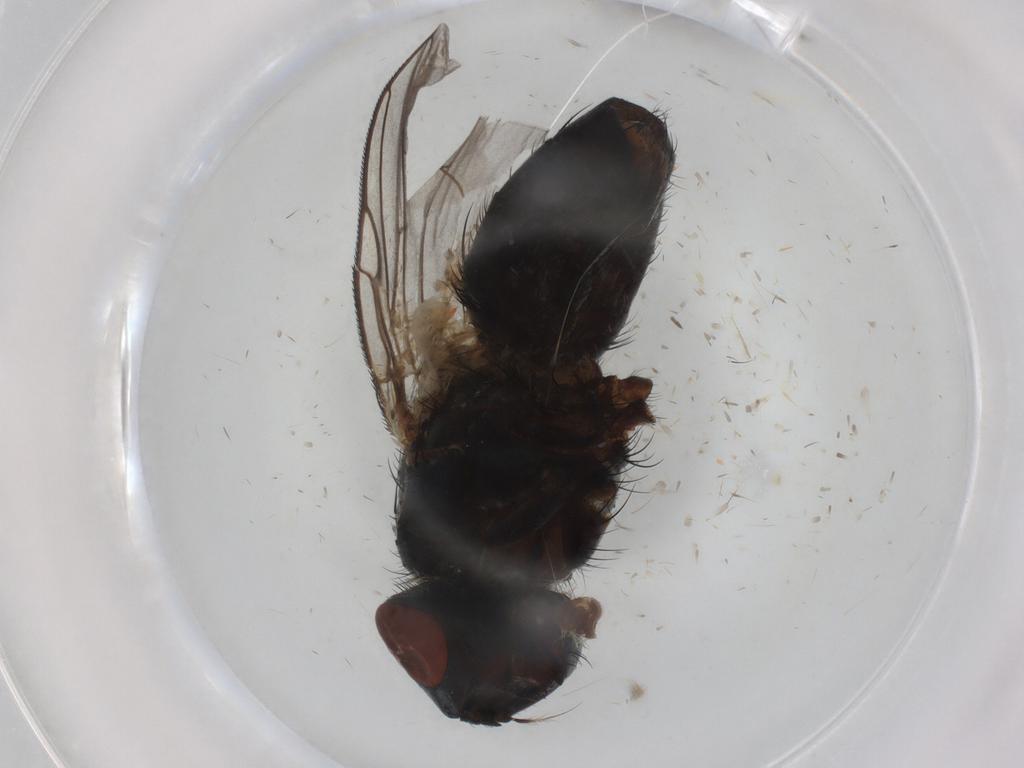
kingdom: Animalia
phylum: Arthropoda
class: Insecta
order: Diptera
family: Sarcophagidae
